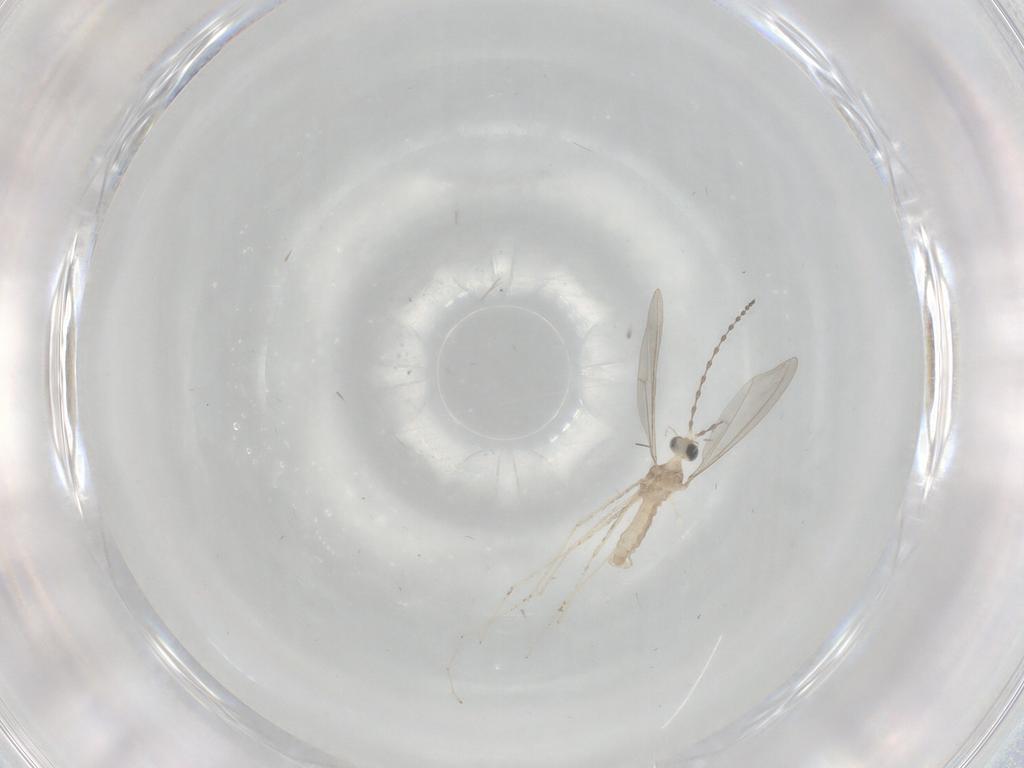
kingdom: Animalia
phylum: Arthropoda
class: Insecta
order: Diptera
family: Cecidomyiidae
